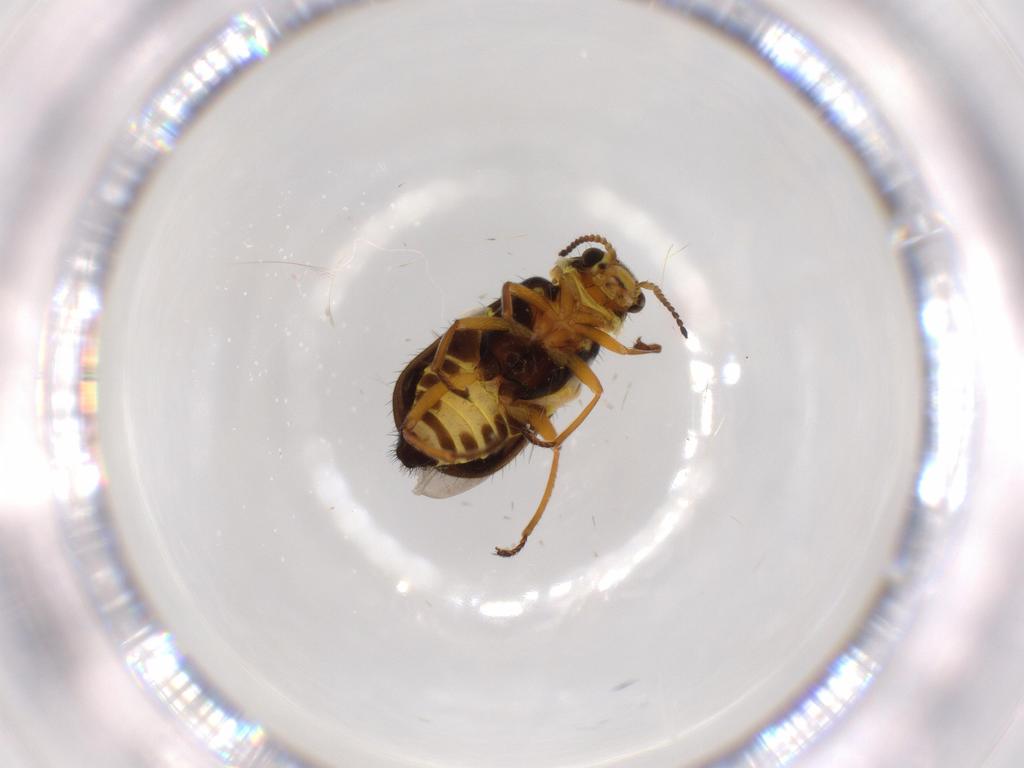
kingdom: Animalia
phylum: Arthropoda
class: Insecta
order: Coleoptera
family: Melyridae
